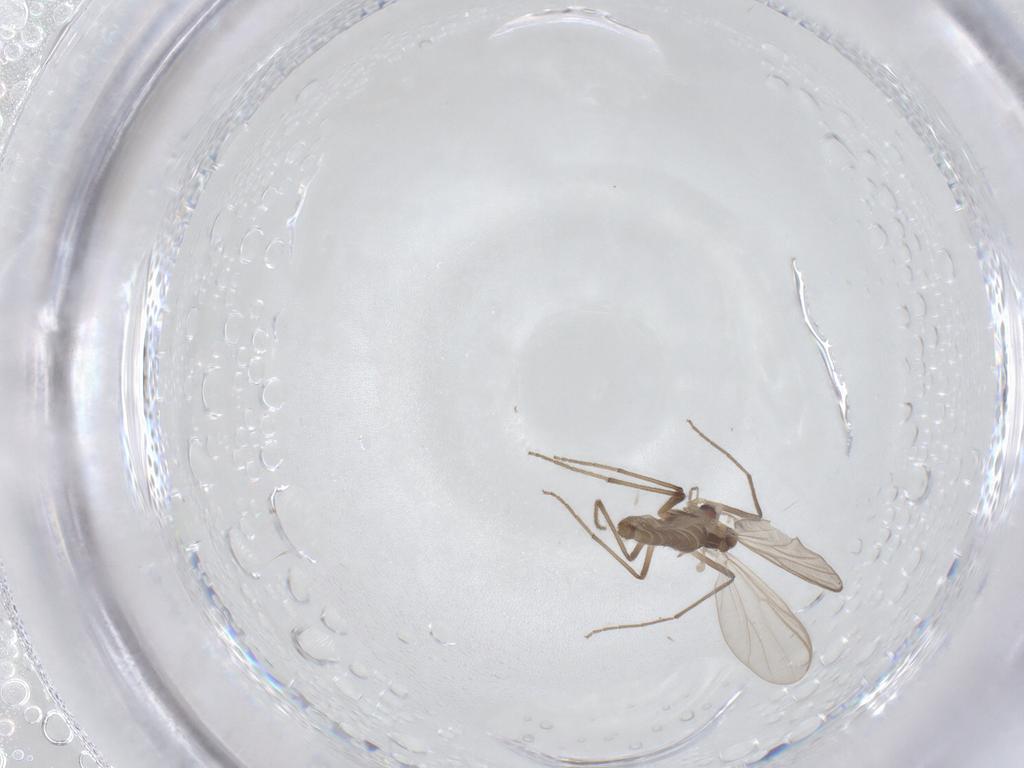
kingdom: Animalia
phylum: Arthropoda
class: Insecta
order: Diptera
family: Chironomidae
